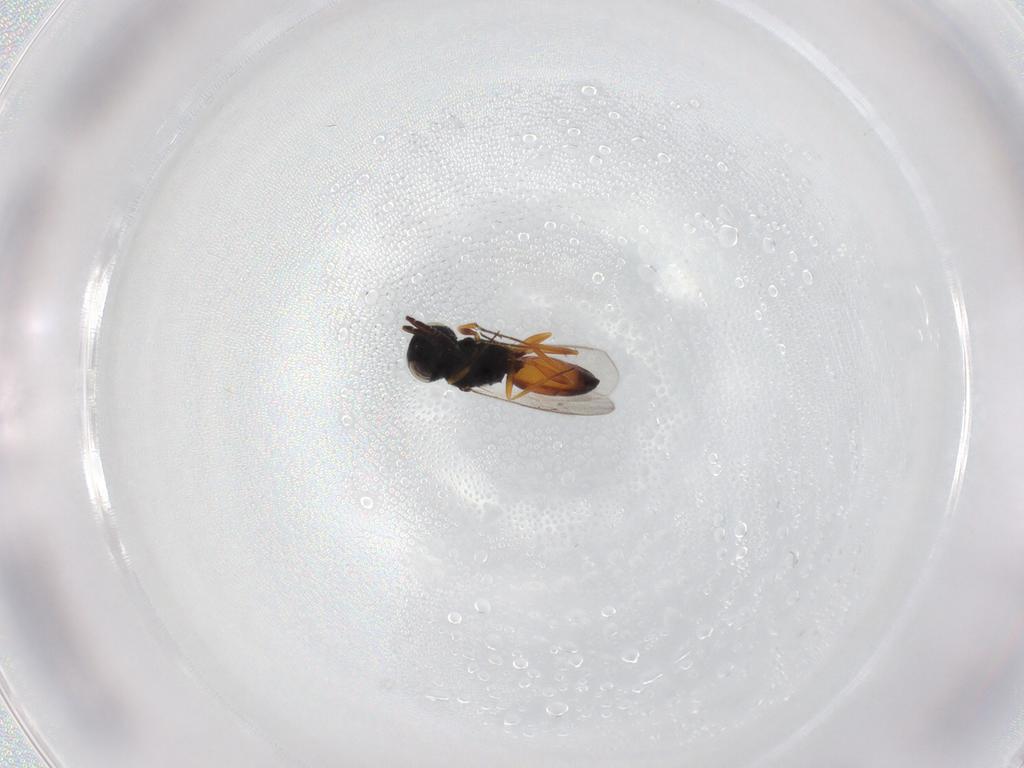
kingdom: Animalia
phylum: Arthropoda
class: Insecta
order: Hymenoptera
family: Scelionidae
